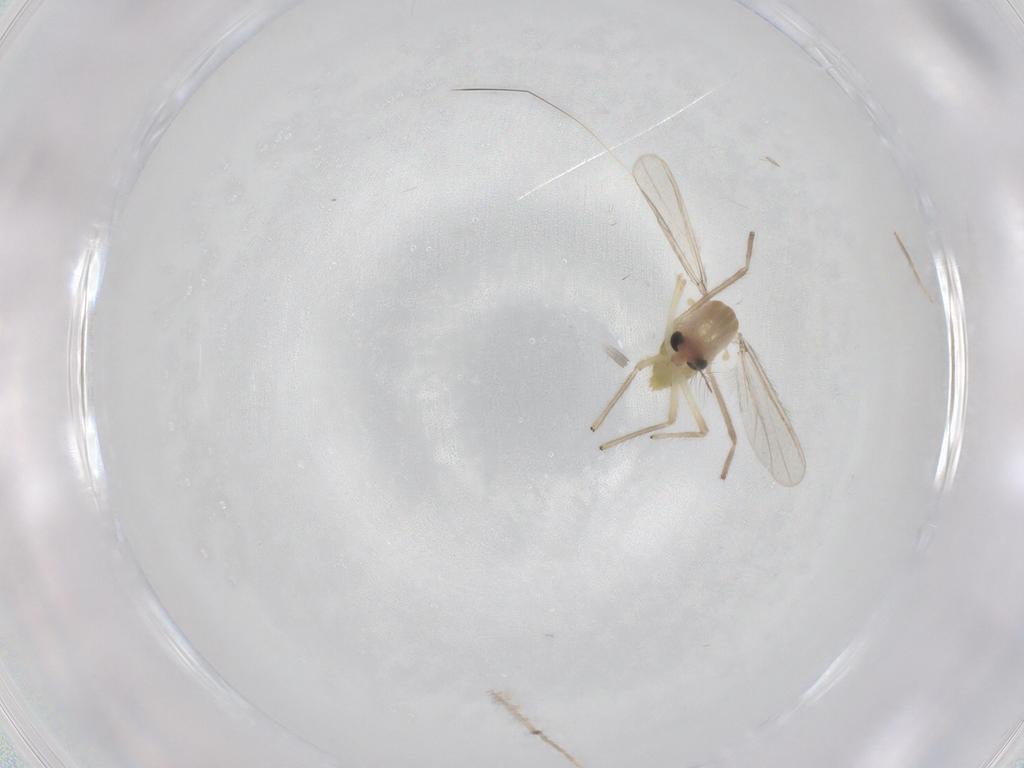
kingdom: Animalia
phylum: Arthropoda
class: Insecta
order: Diptera
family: Chironomidae
